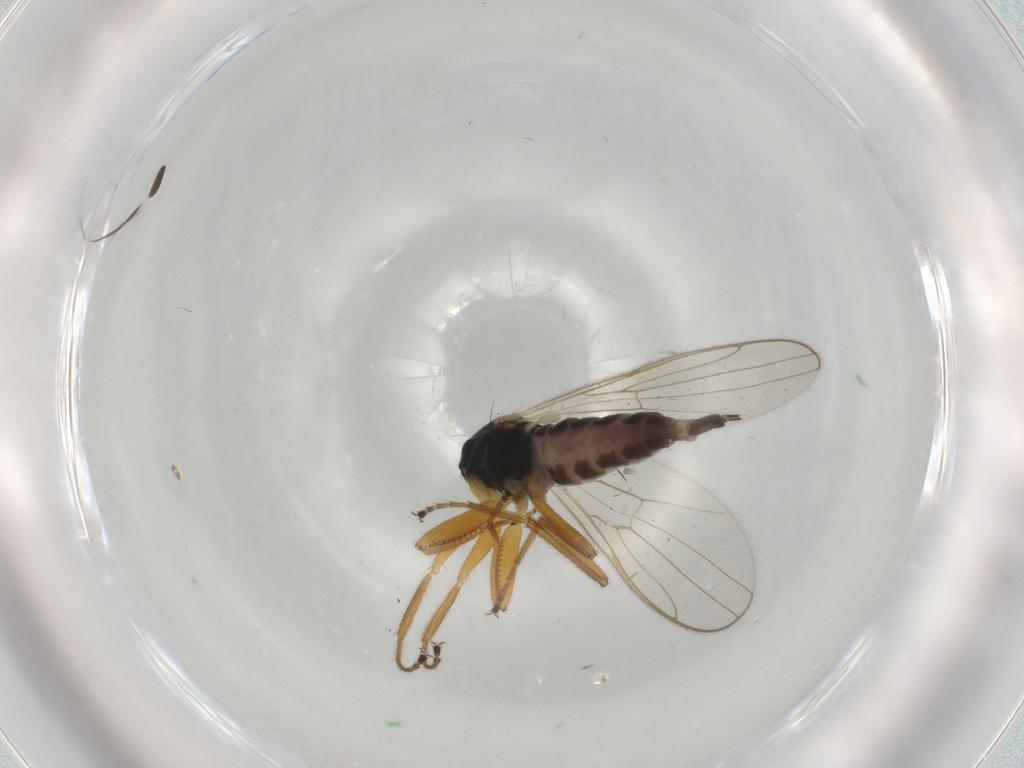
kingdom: Animalia
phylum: Arthropoda
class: Insecta
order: Diptera
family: Hybotidae
